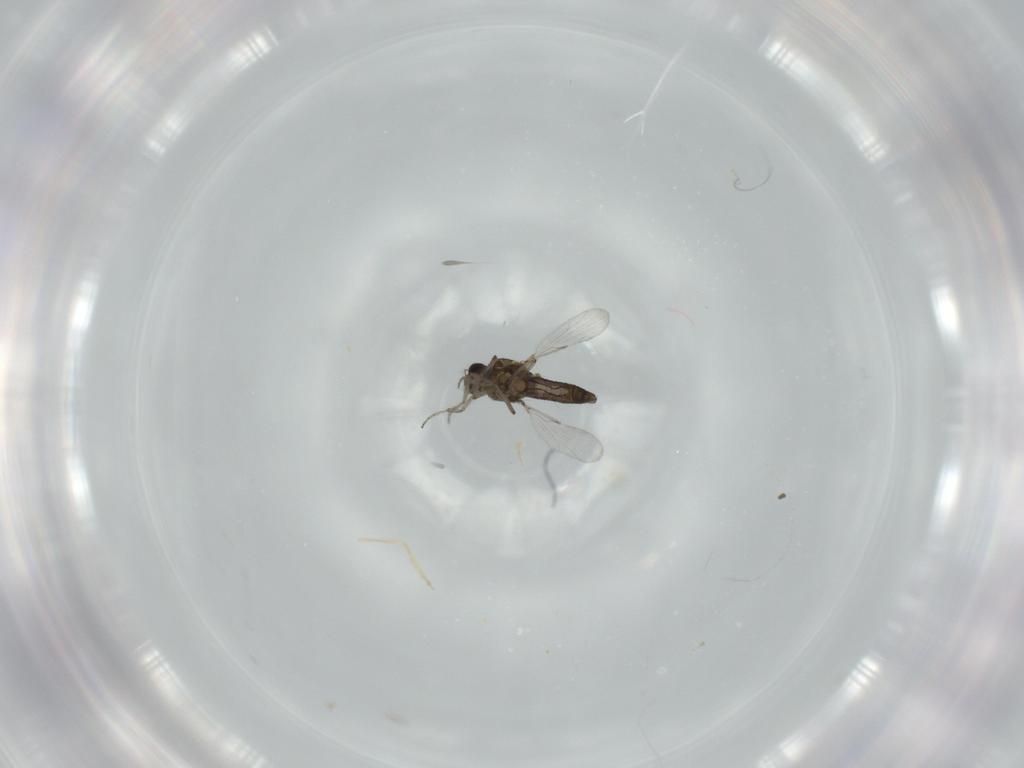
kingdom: Animalia
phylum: Arthropoda
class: Insecta
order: Diptera
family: Ceratopogonidae
